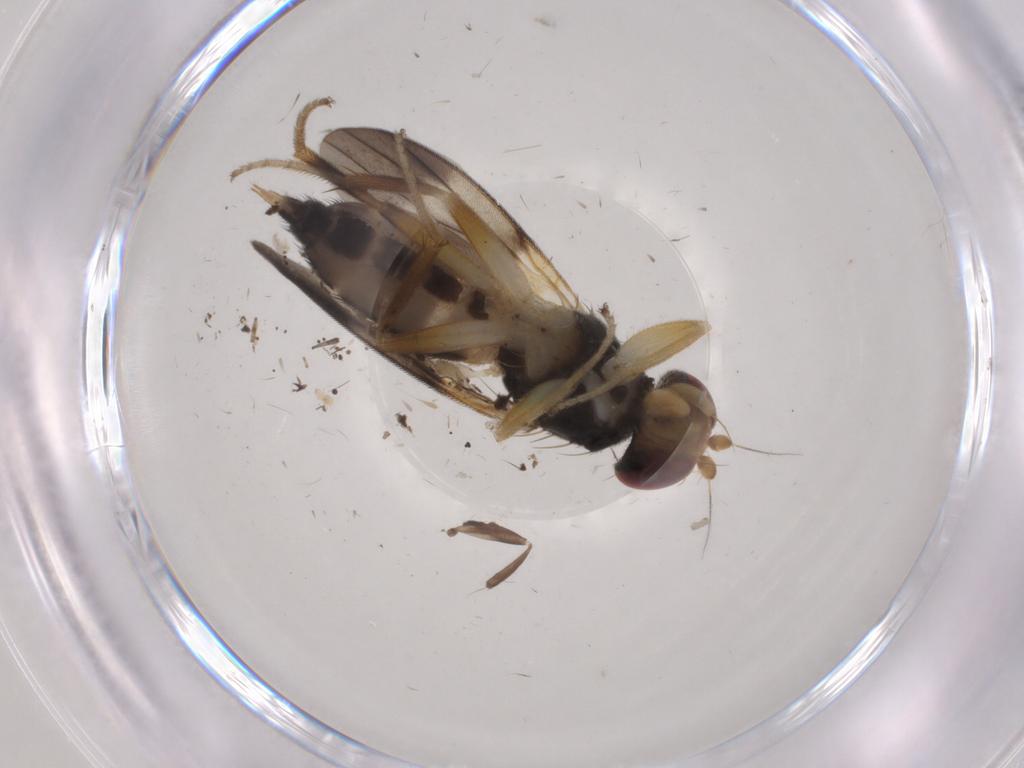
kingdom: Animalia
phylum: Arthropoda
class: Insecta
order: Diptera
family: Clusiidae
